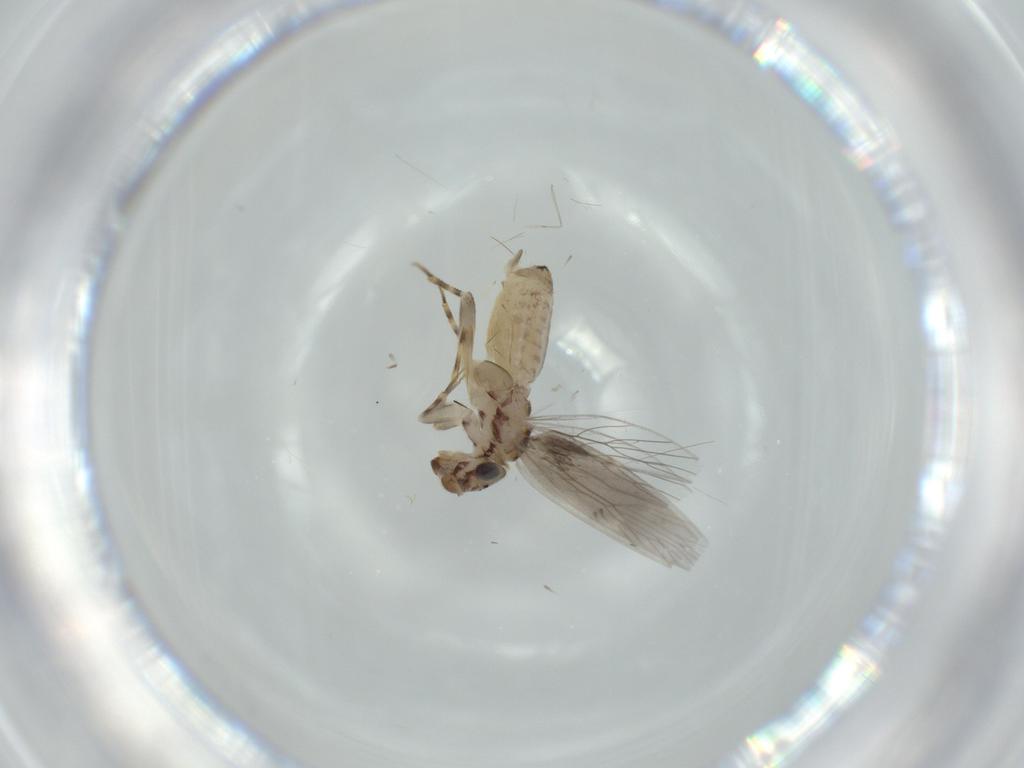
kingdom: Animalia
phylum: Arthropoda
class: Insecta
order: Psocodea
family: Lepidopsocidae
